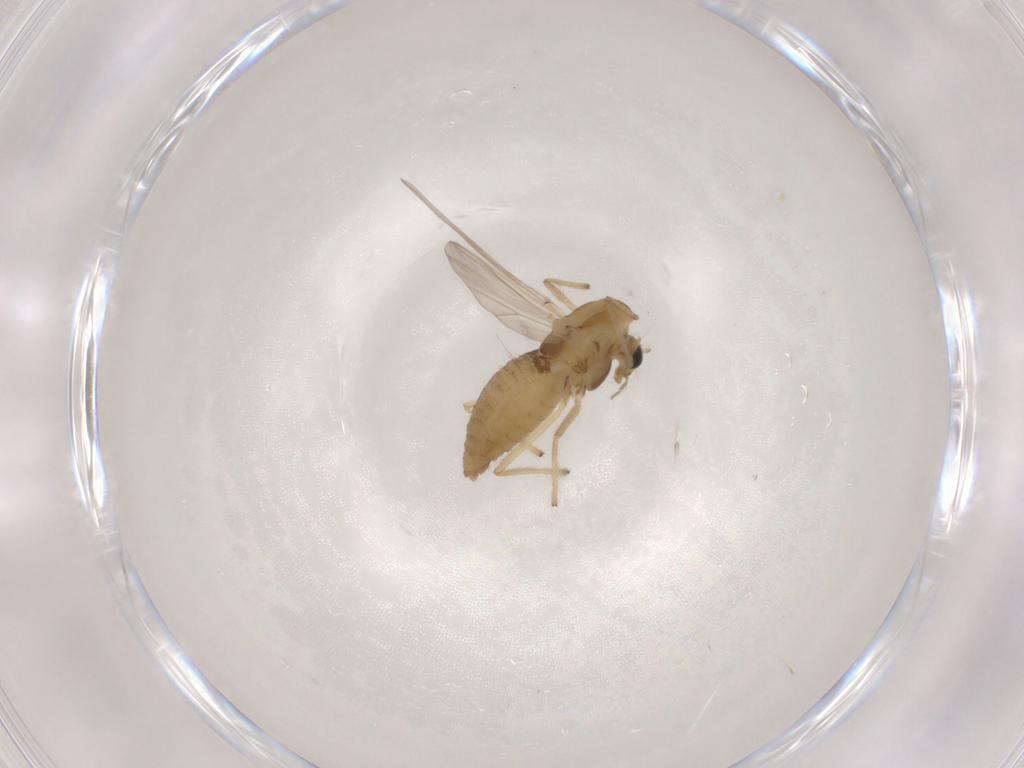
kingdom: Animalia
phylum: Arthropoda
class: Insecta
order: Diptera
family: Chironomidae
